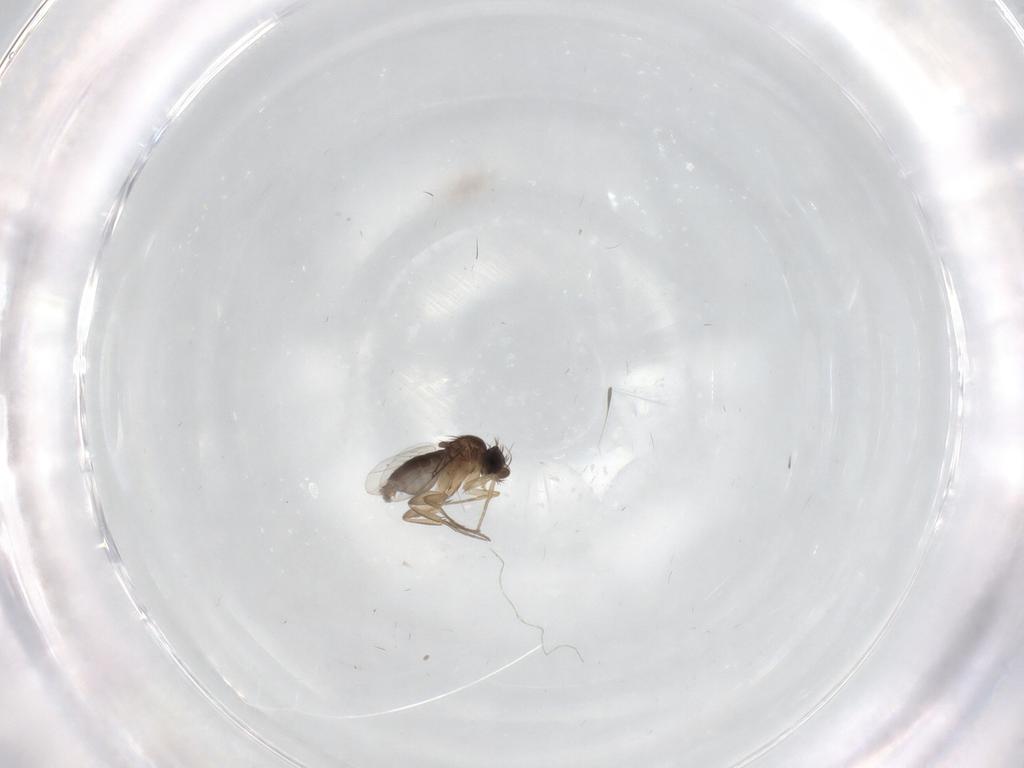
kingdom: Animalia
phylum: Arthropoda
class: Insecta
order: Diptera
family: Phoridae
